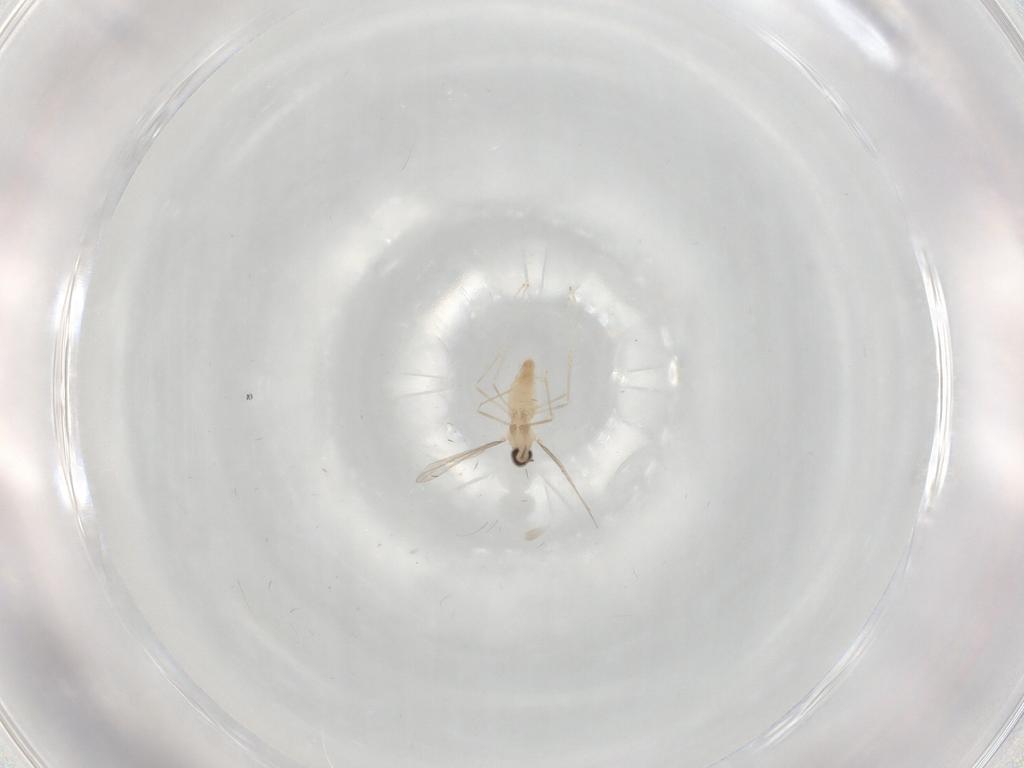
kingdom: Animalia
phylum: Arthropoda
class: Insecta
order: Diptera
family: Cecidomyiidae
